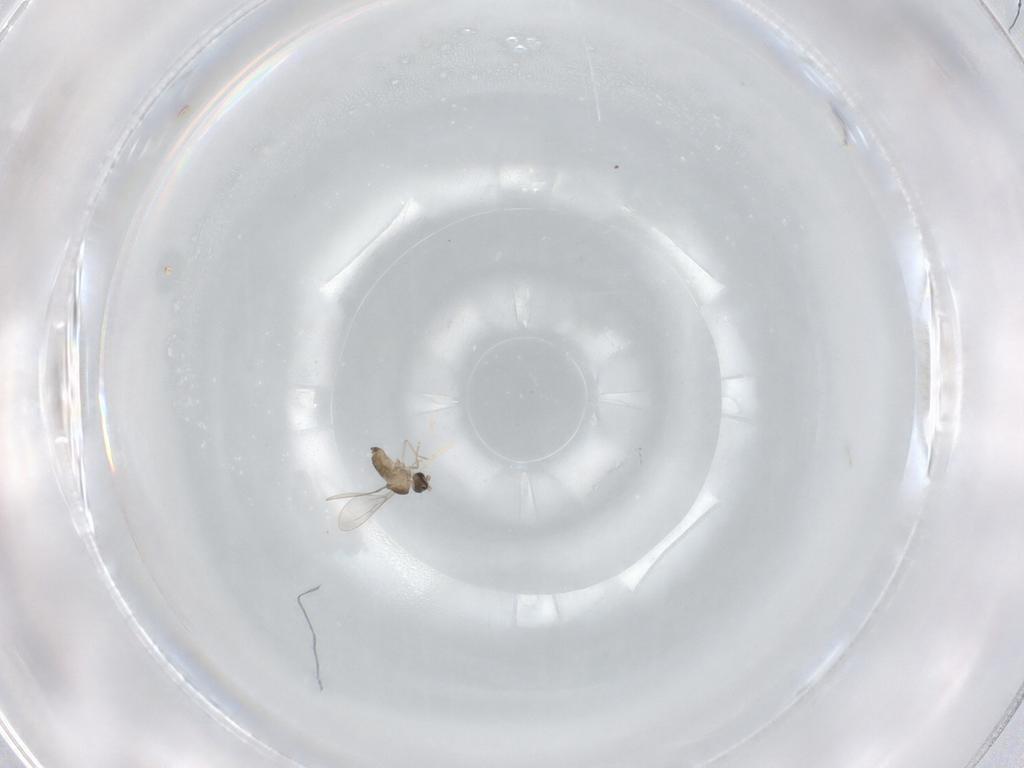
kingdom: Animalia
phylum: Arthropoda
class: Insecta
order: Diptera
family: Cecidomyiidae
